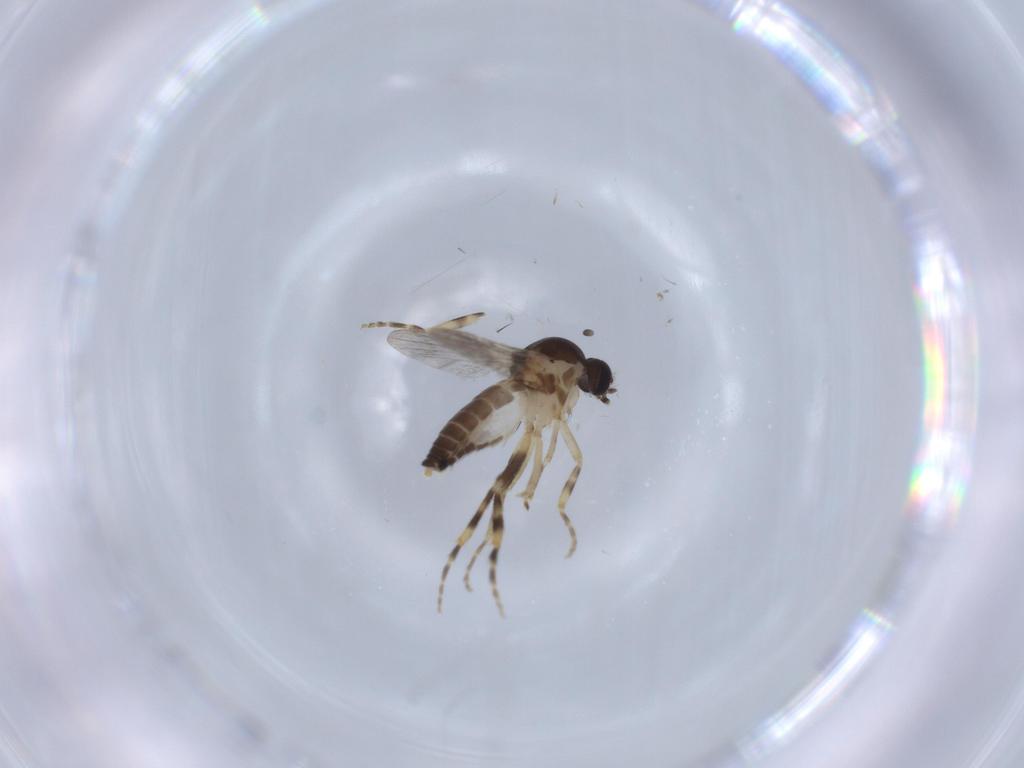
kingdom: Animalia
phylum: Arthropoda
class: Insecta
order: Diptera
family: Ceratopogonidae
